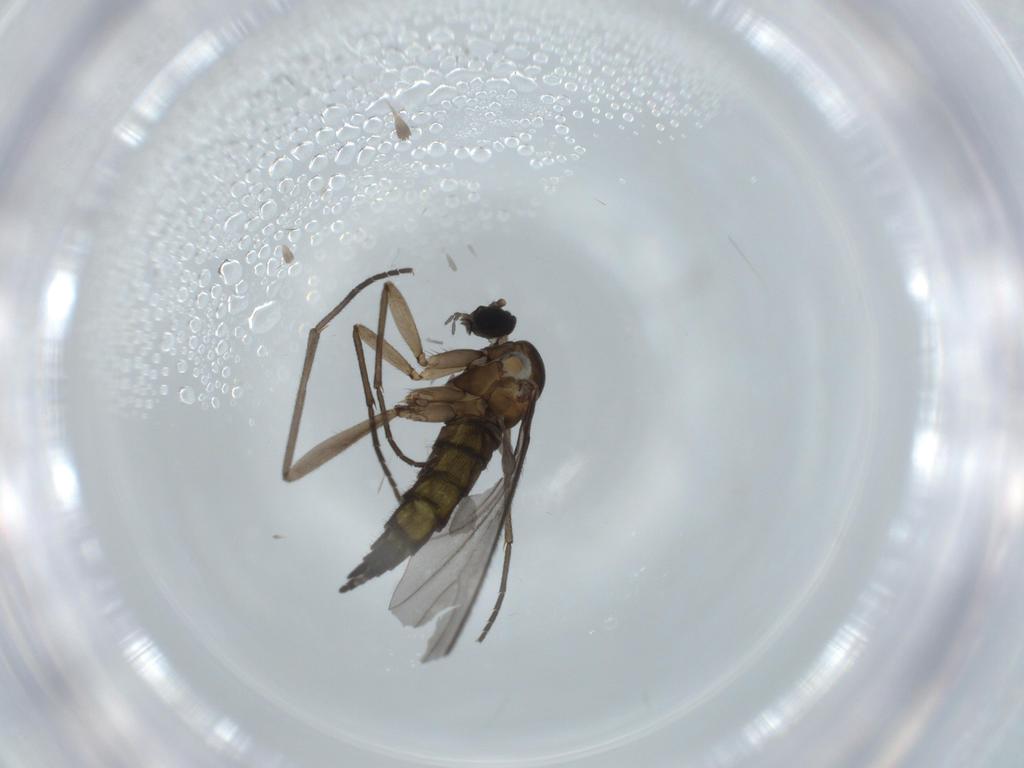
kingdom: Animalia
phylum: Arthropoda
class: Insecta
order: Diptera
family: Sciaridae
